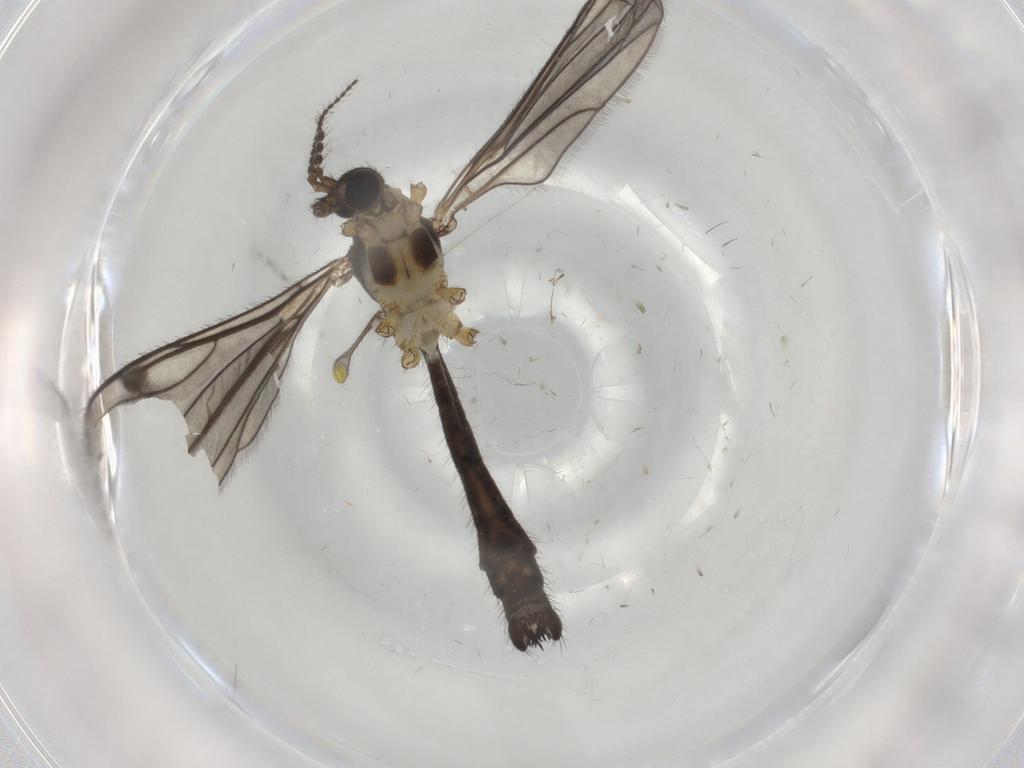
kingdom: Animalia
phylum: Arthropoda
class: Insecta
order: Diptera
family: Limoniidae
